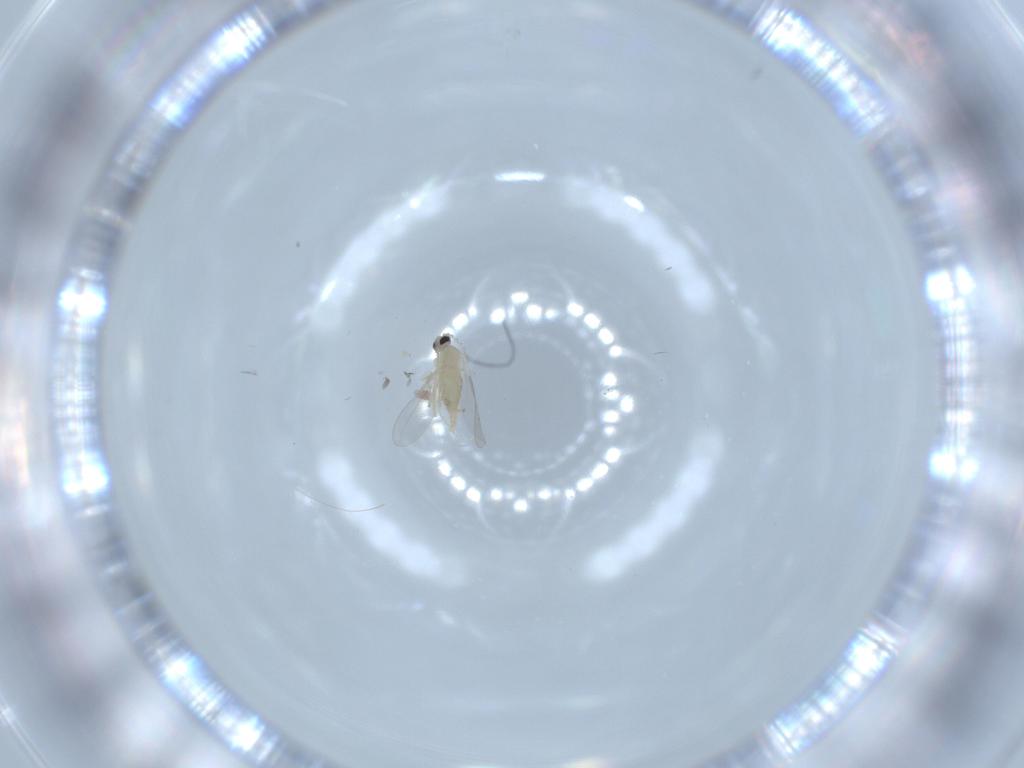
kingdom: Animalia
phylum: Arthropoda
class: Insecta
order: Diptera
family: Cecidomyiidae
